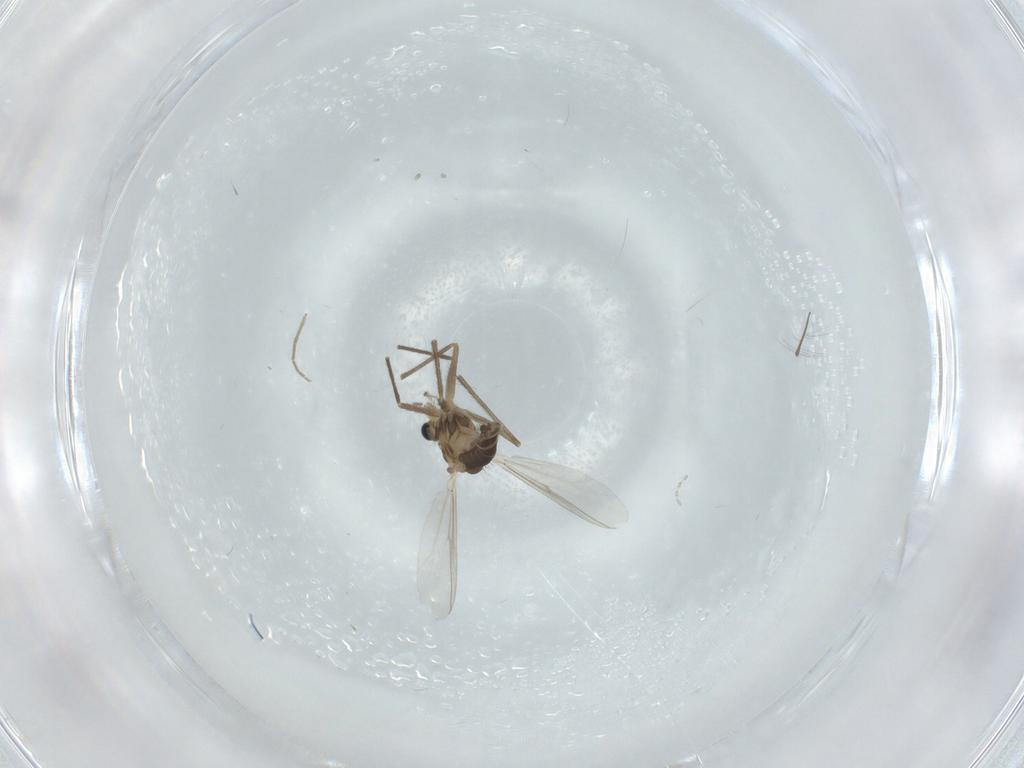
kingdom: Animalia
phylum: Arthropoda
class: Insecta
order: Diptera
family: Chironomidae
